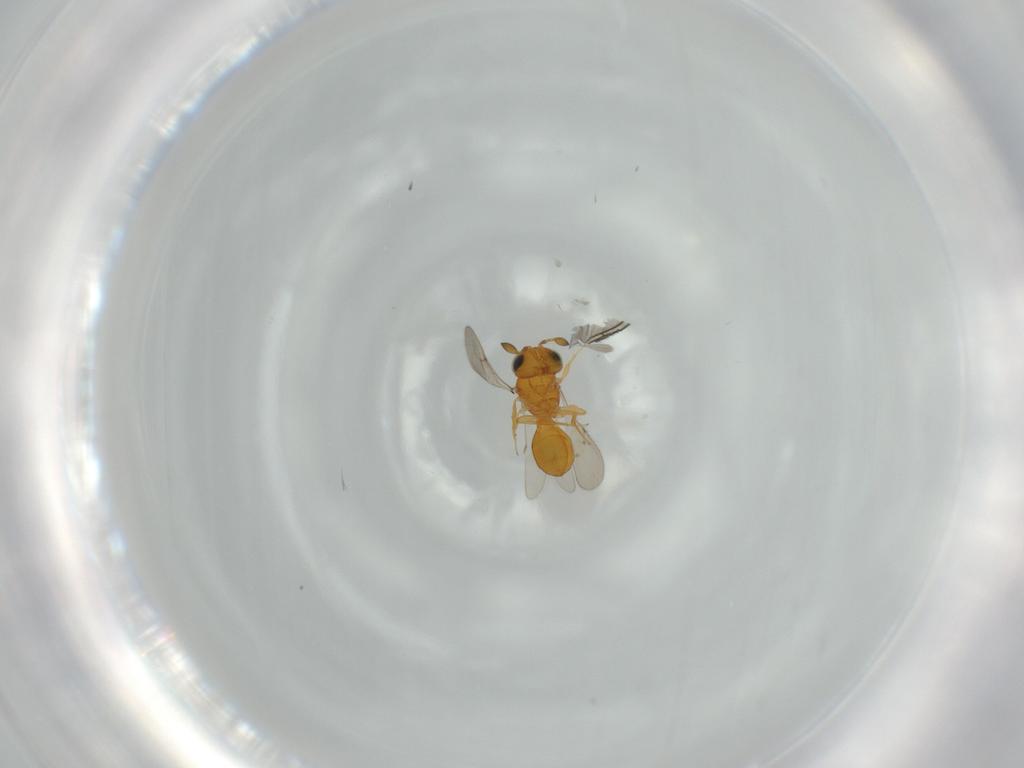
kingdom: Animalia
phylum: Arthropoda
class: Insecta
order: Hymenoptera
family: Scelionidae
